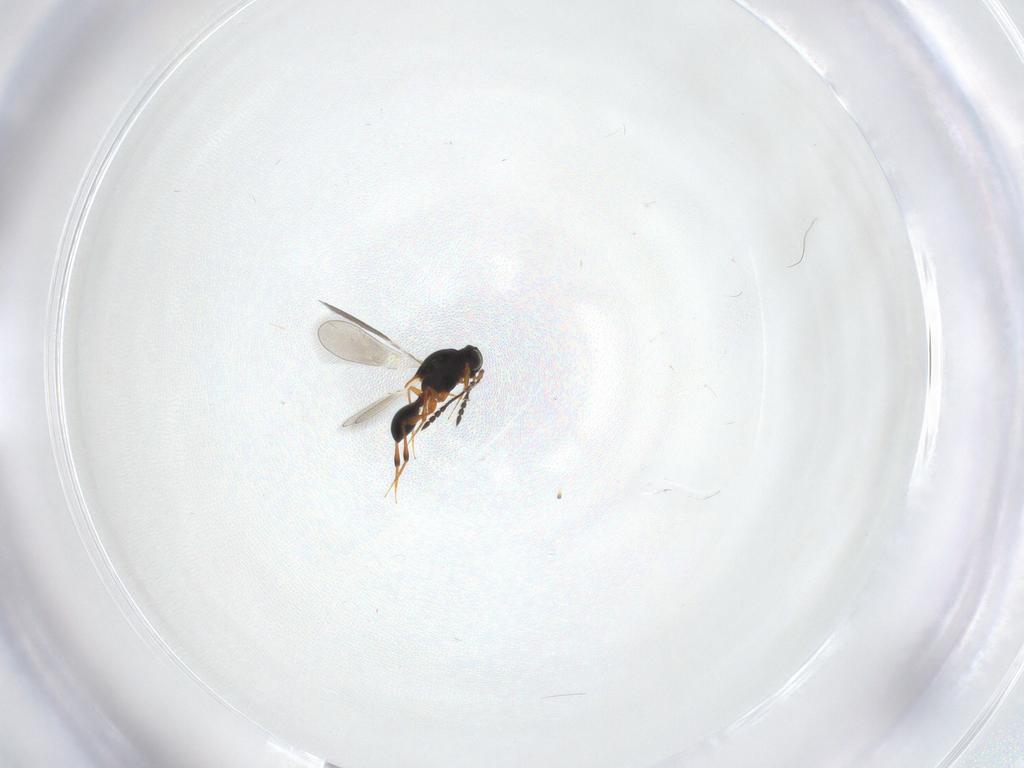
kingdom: Animalia
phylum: Arthropoda
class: Insecta
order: Hymenoptera
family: Platygastridae
